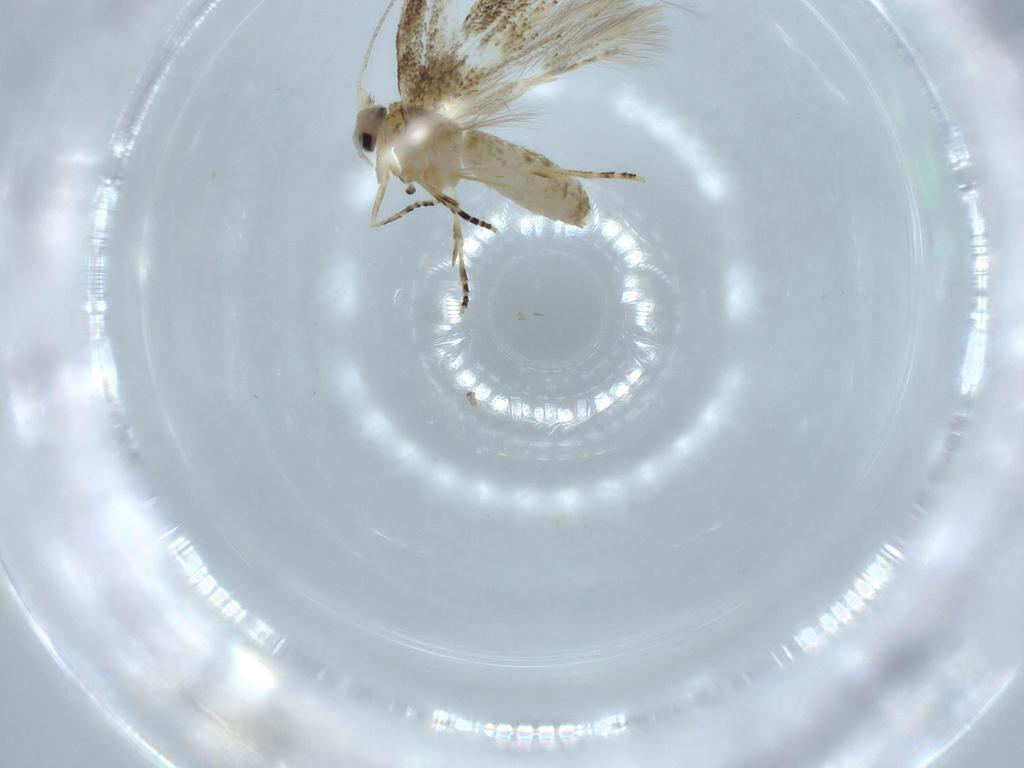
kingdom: Animalia
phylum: Arthropoda
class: Insecta
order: Lepidoptera
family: Bucculatricidae
